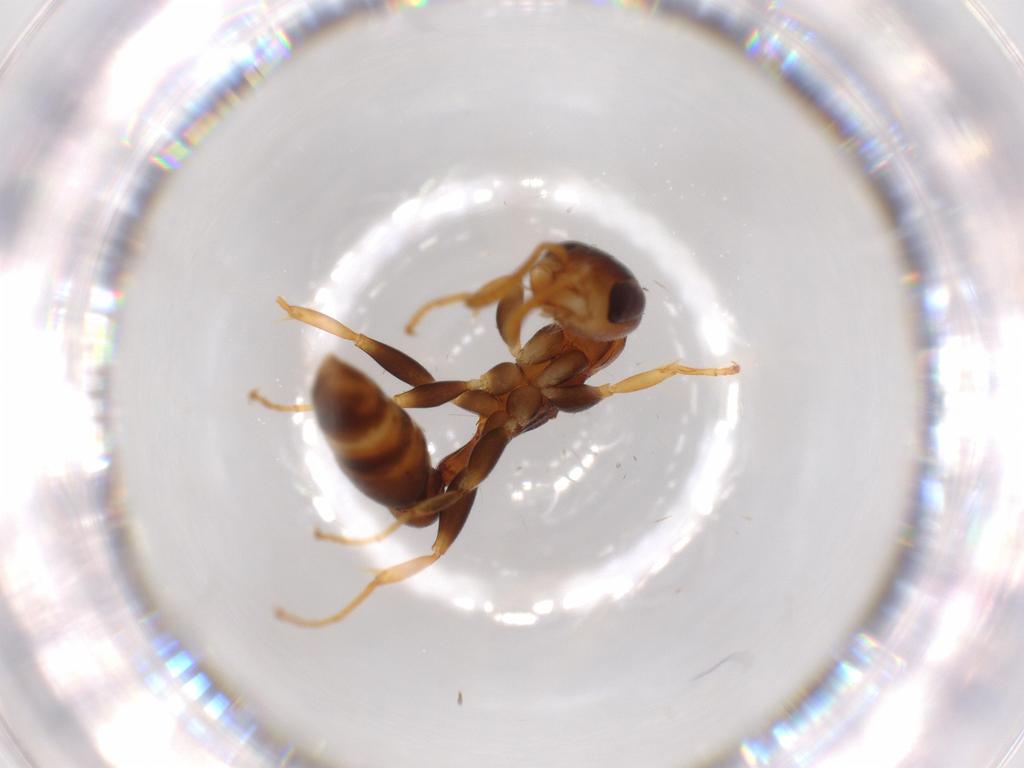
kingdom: Animalia
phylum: Arthropoda
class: Insecta
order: Hymenoptera
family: Formicidae
